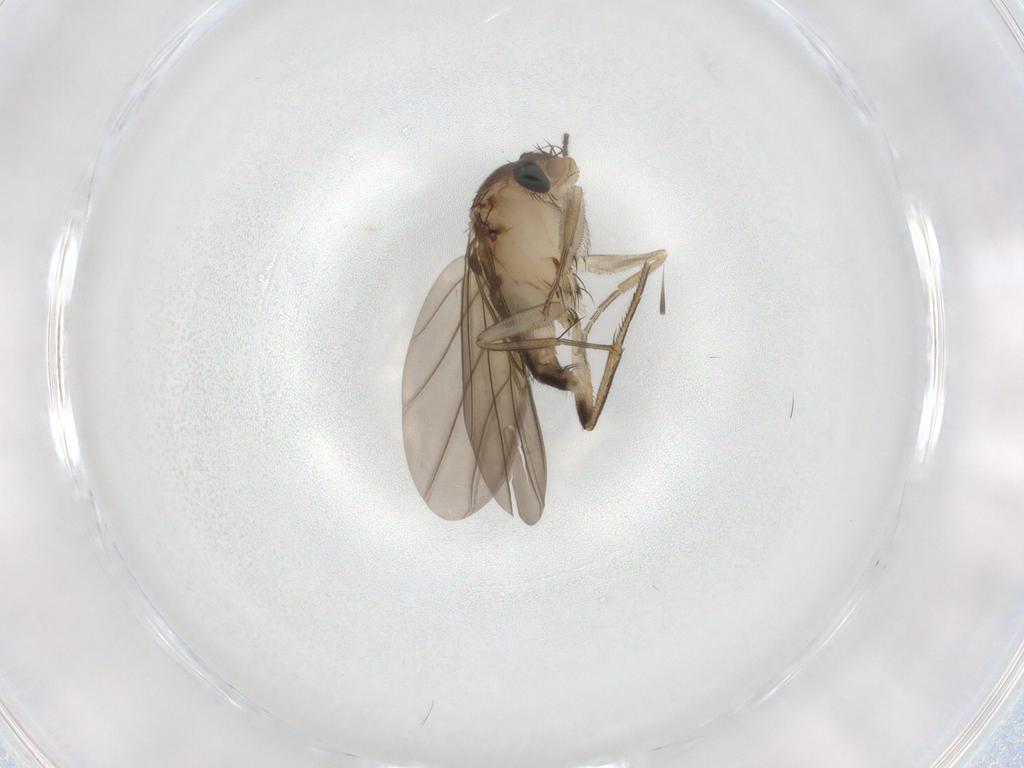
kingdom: Animalia
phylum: Arthropoda
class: Insecta
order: Diptera
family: Phoridae
